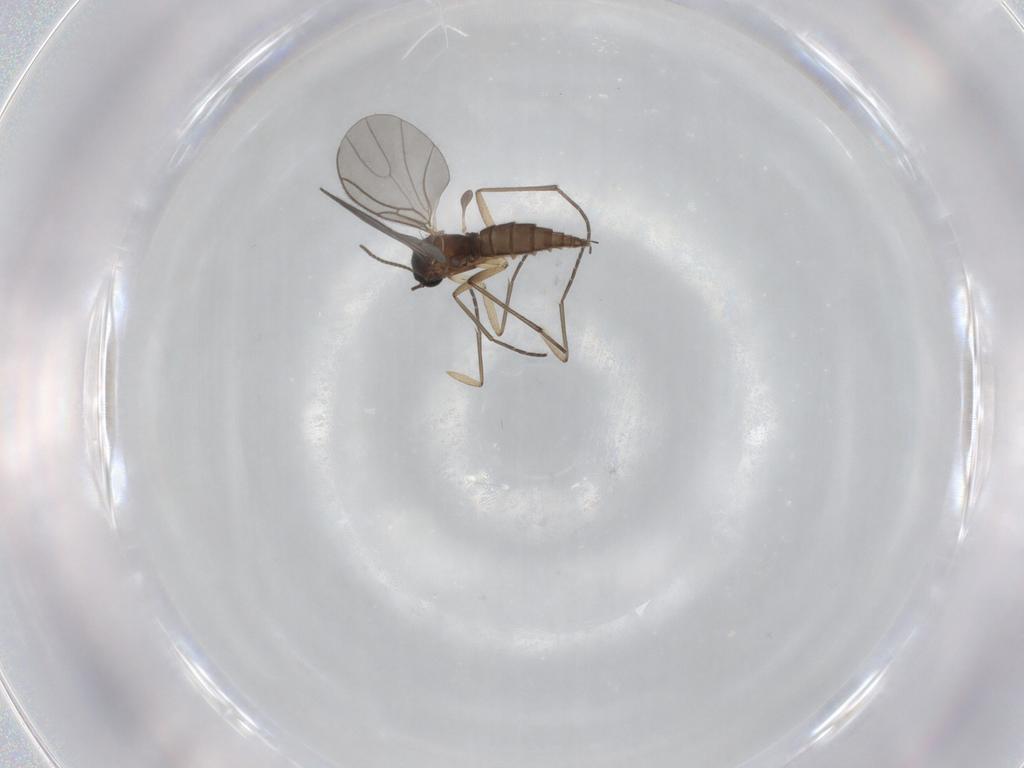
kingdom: Animalia
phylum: Arthropoda
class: Insecta
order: Diptera
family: Sciaridae
